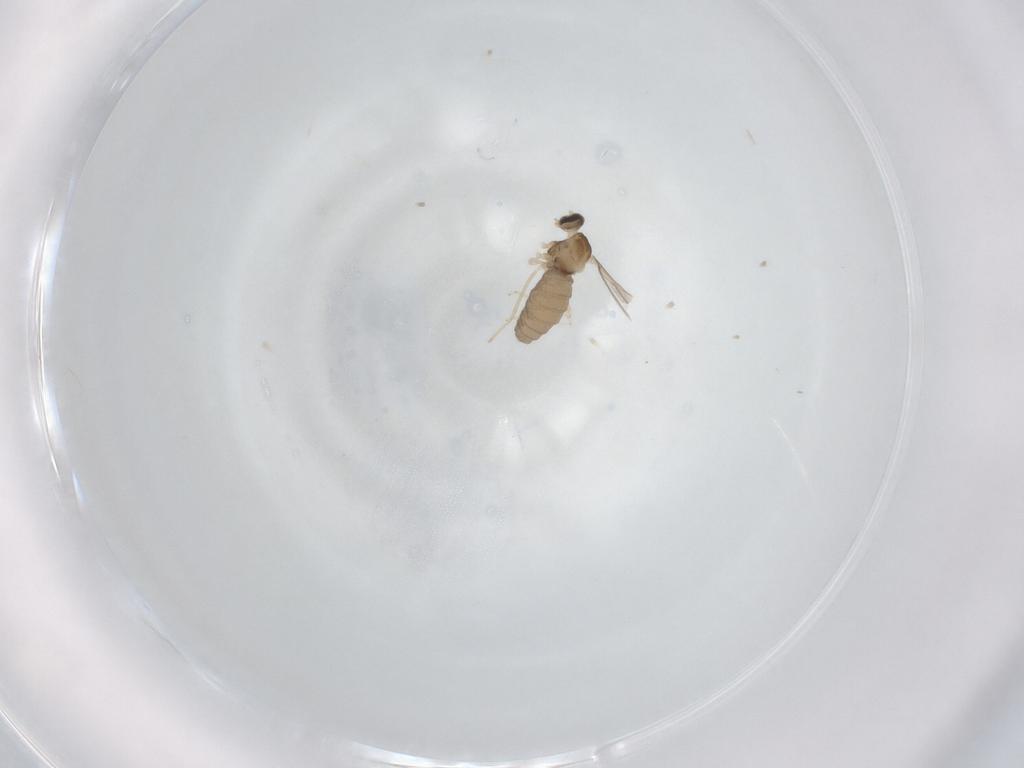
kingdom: Animalia
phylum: Arthropoda
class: Insecta
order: Diptera
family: Cecidomyiidae
